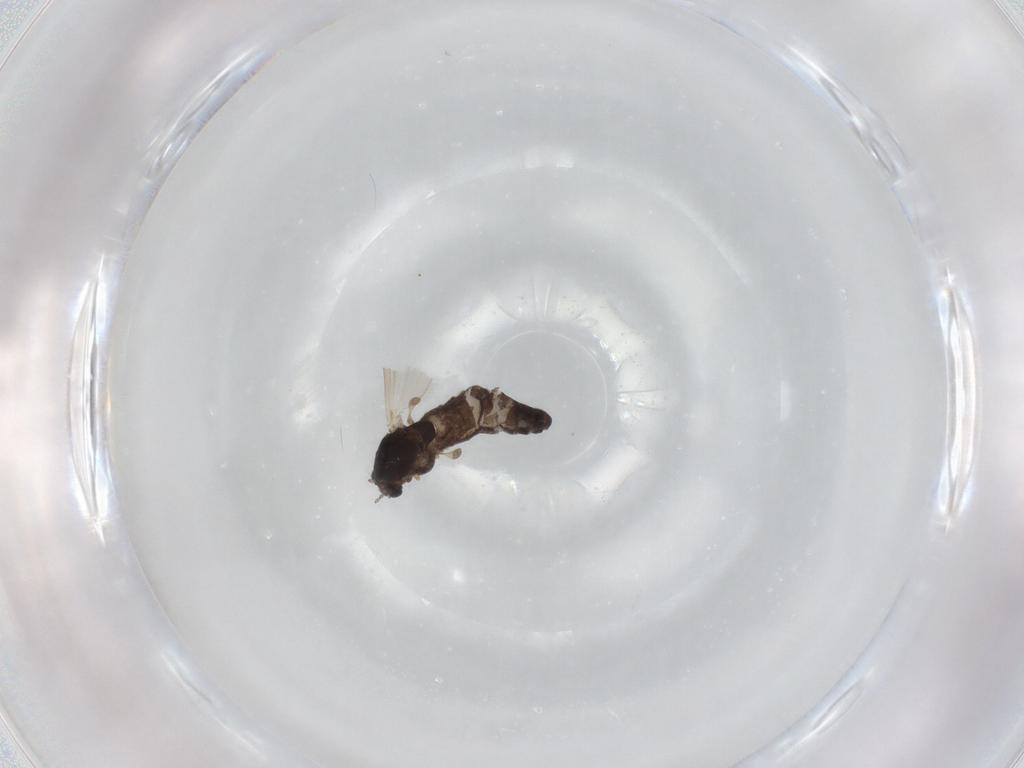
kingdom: Animalia
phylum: Arthropoda
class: Insecta
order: Diptera
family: Chironomidae
